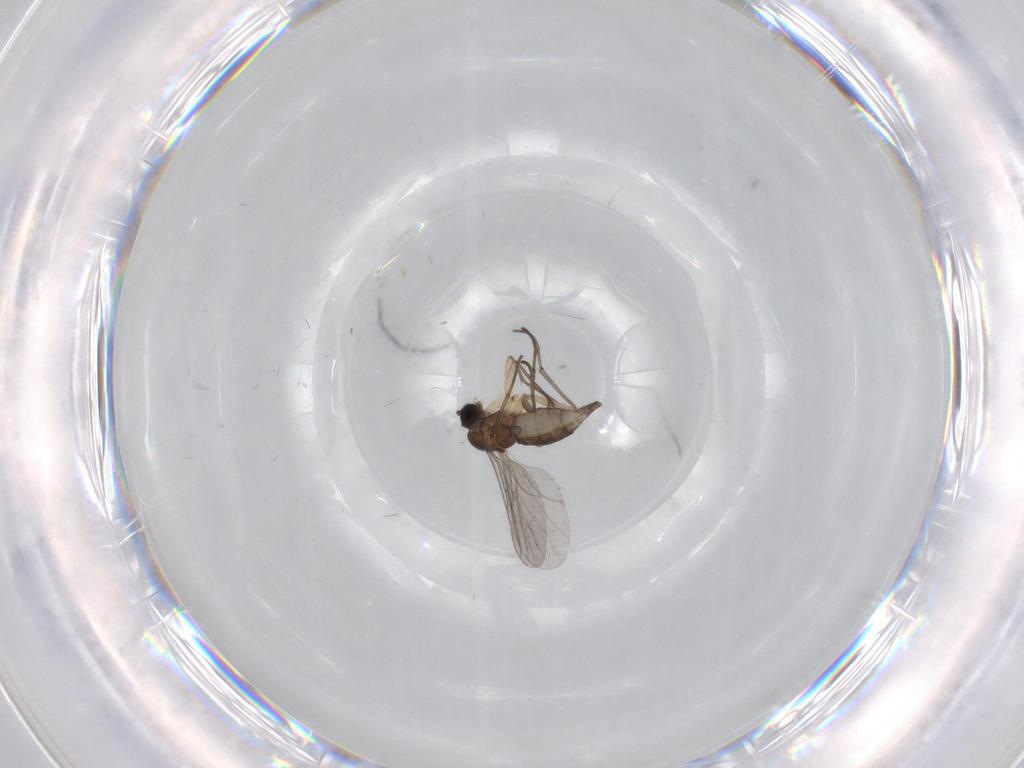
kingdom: Animalia
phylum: Arthropoda
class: Insecta
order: Diptera
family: Sciaridae
